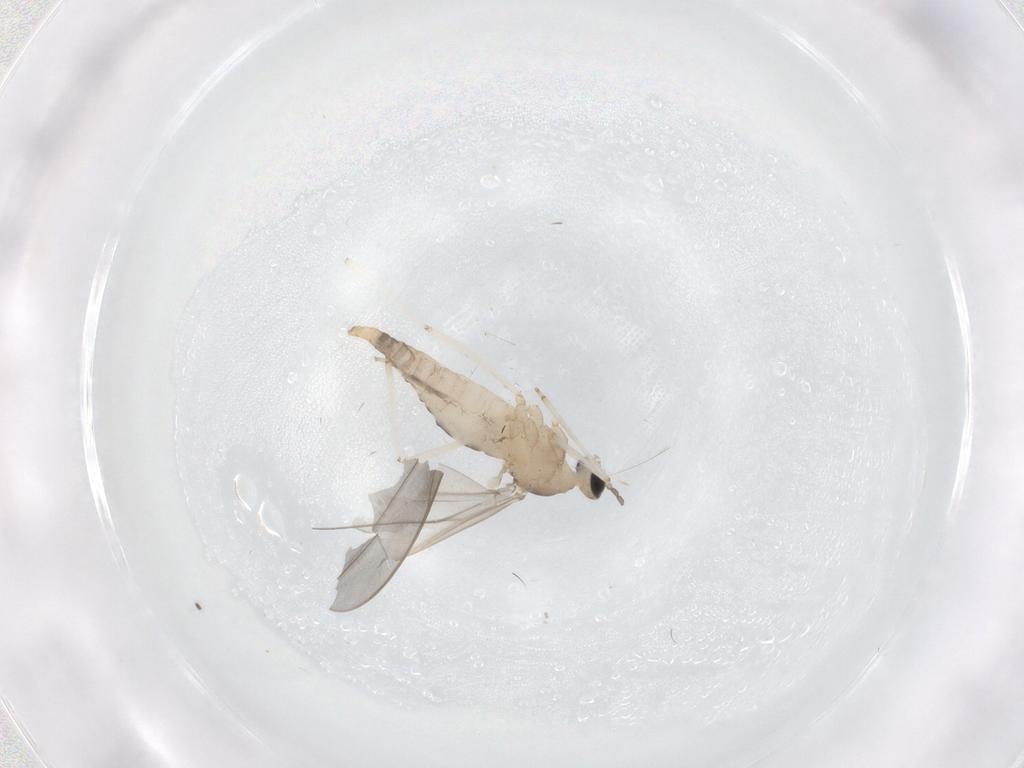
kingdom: Animalia
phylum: Arthropoda
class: Insecta
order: Diptera
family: Cecidomyiidae
